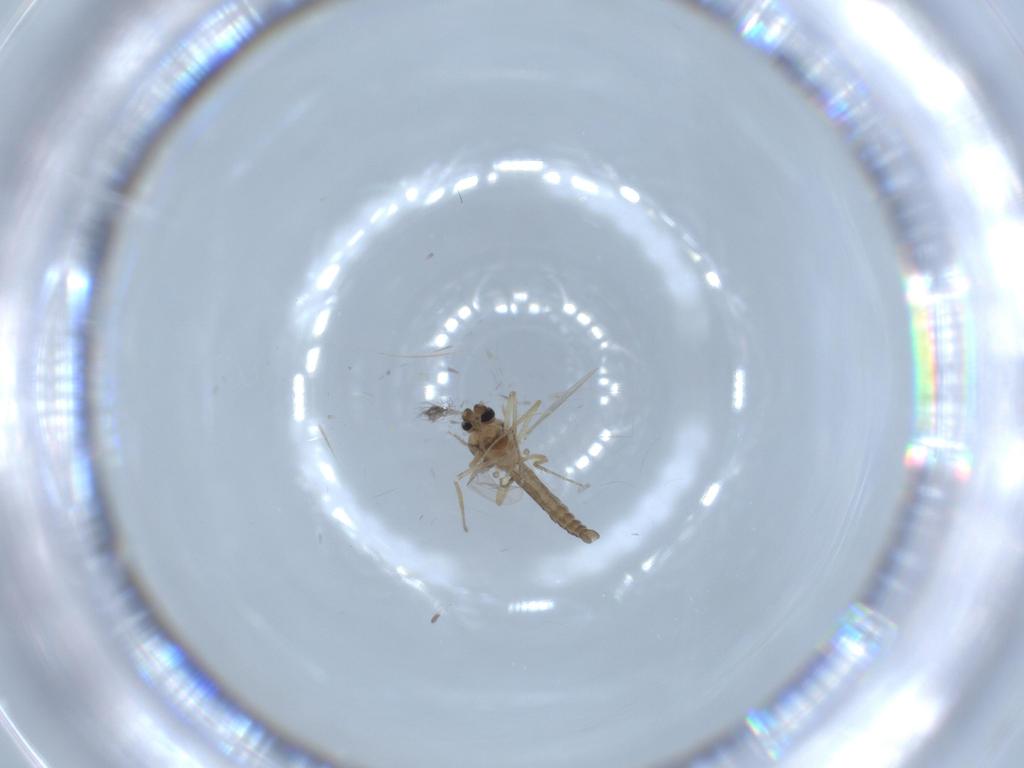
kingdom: Animalia
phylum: Arthropoda
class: Insecta
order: Diptera
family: Ceratopogonidae
